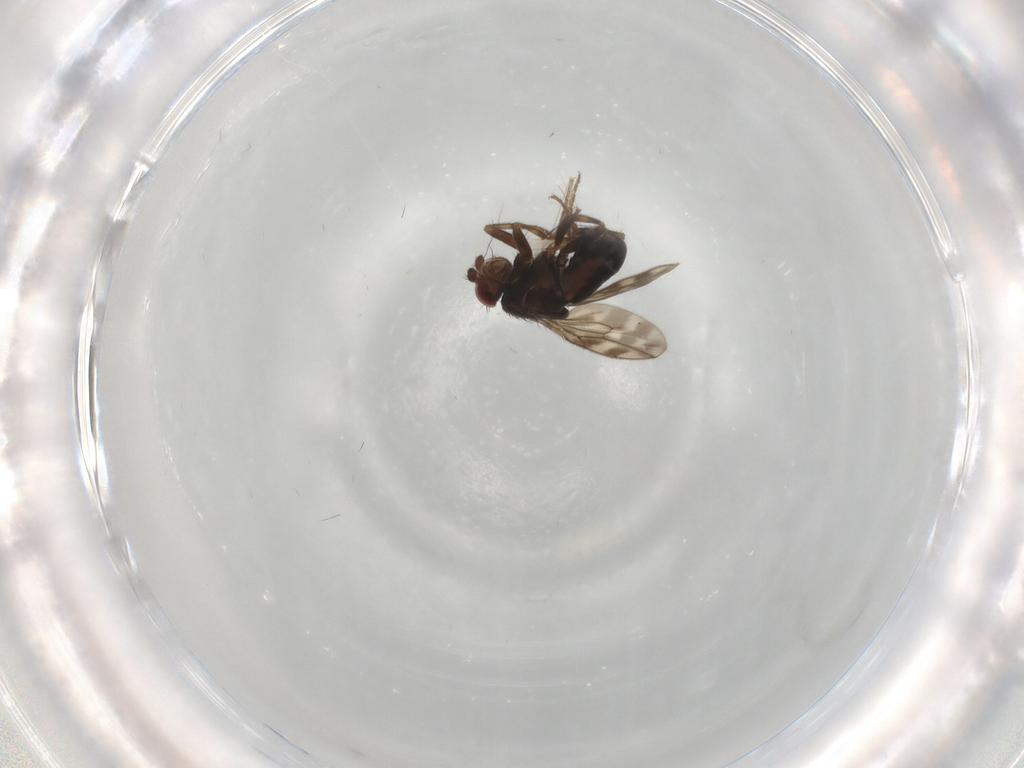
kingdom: Animalia
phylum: Arthropoda
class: Insecta
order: Diptera
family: Sphaeroceridae
